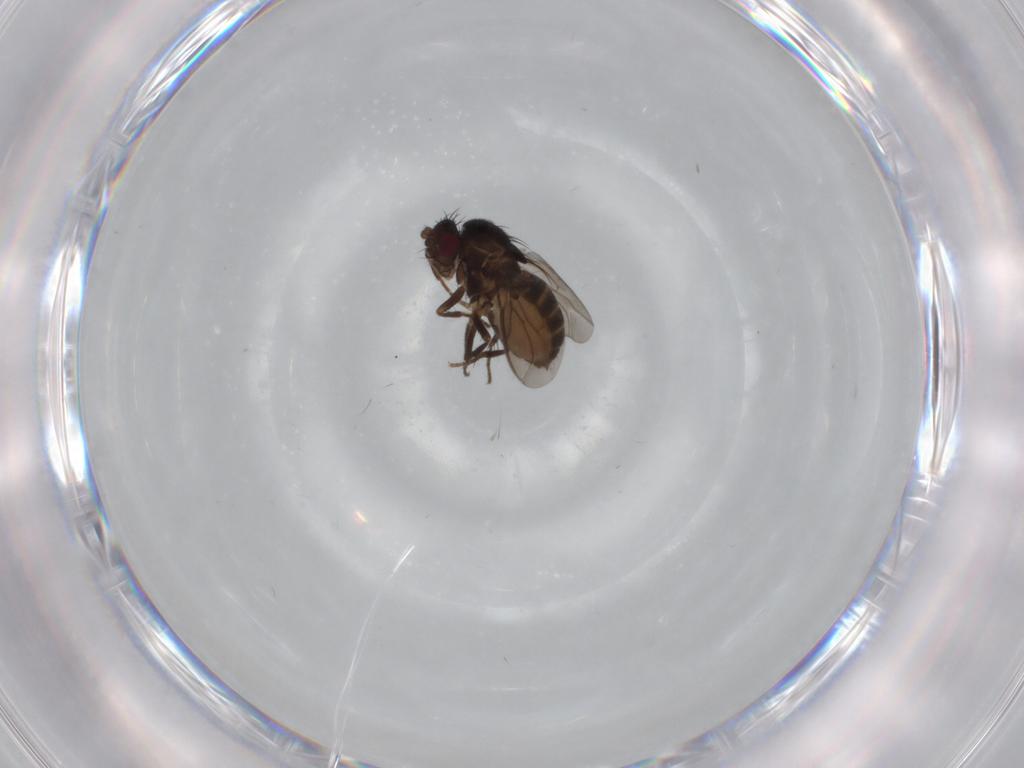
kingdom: Animalia
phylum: Arthropoda
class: Insecta
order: Diptera
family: Sphaeroceridae
